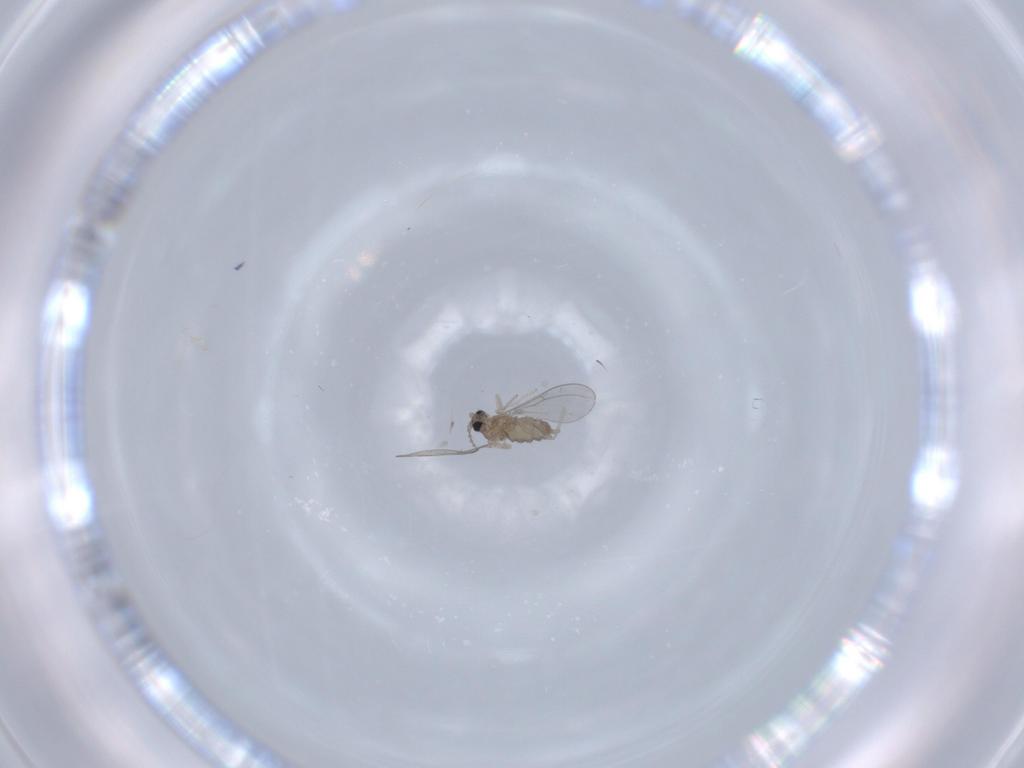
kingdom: Animalia
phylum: Arthropoda
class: Insecta
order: Diptera
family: Cecidomyiidae
